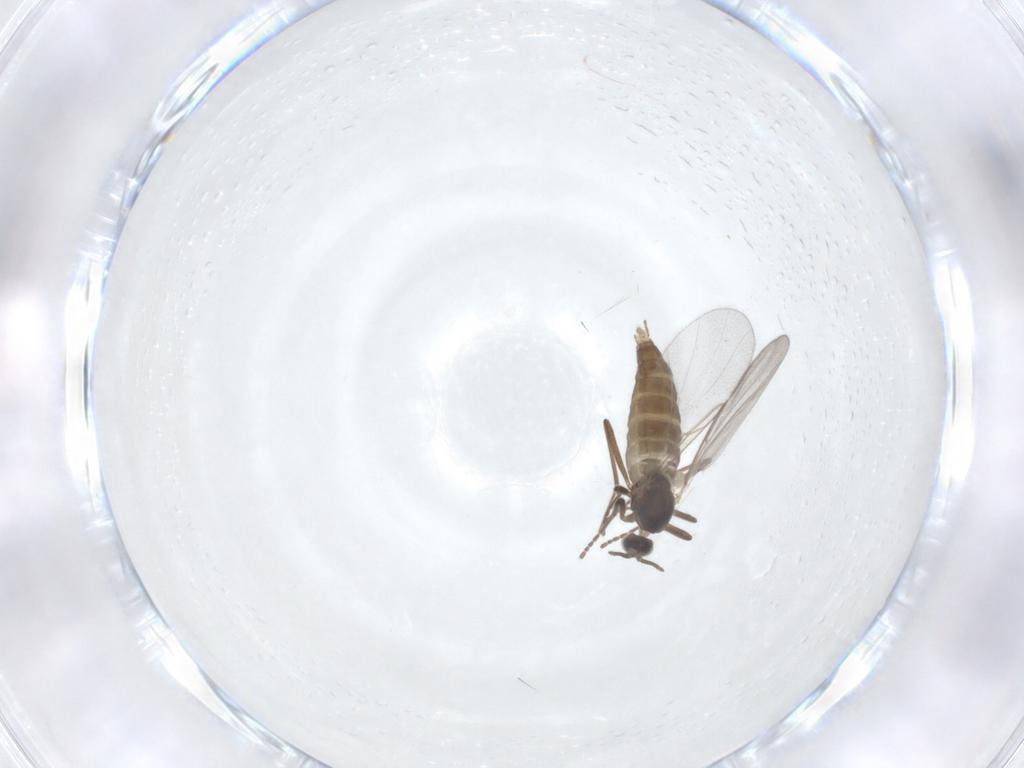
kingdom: Animalia
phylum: Arthropoda
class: Insecta
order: Diptera
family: Cecidomyiidae
